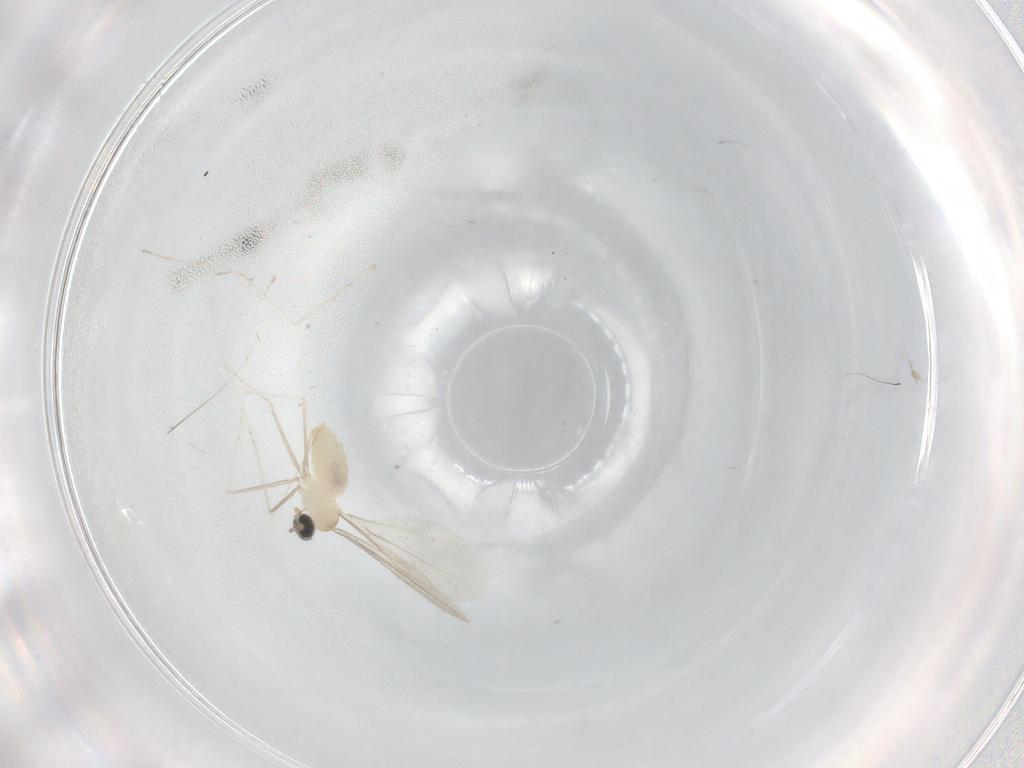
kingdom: Animalia
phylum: Arthropoda
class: Insecta
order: Diptera
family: Cecidomyiidae
